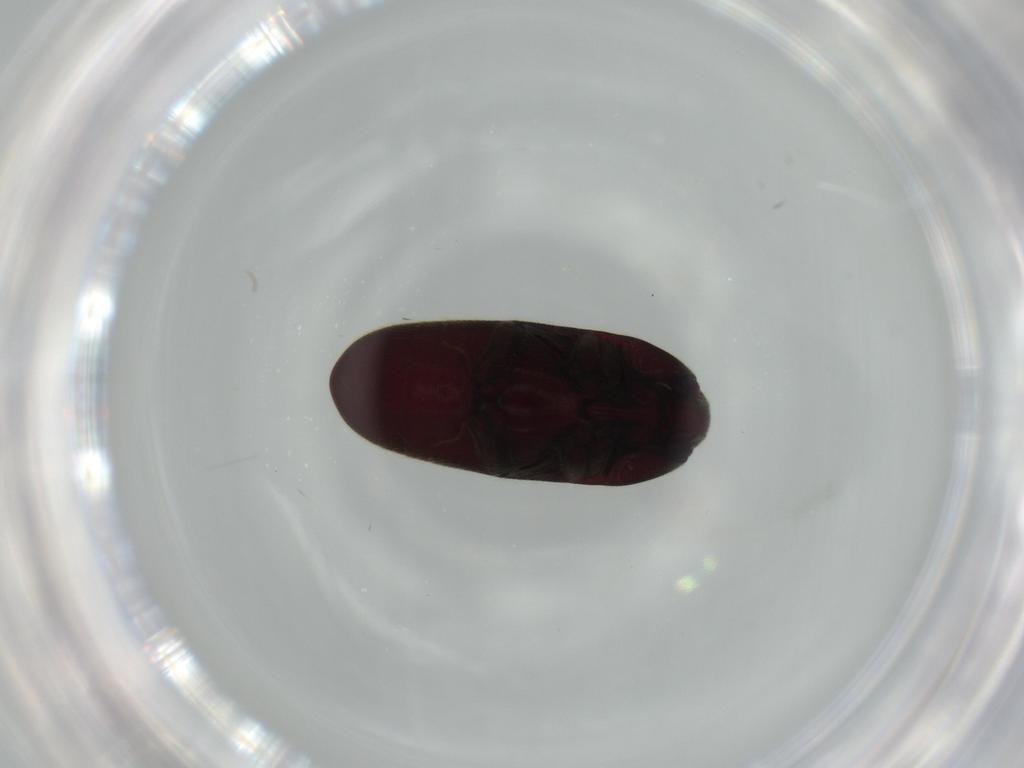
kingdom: Animalia
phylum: Arthropoda
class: Insecta
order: Coleoptera
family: Throscidae
